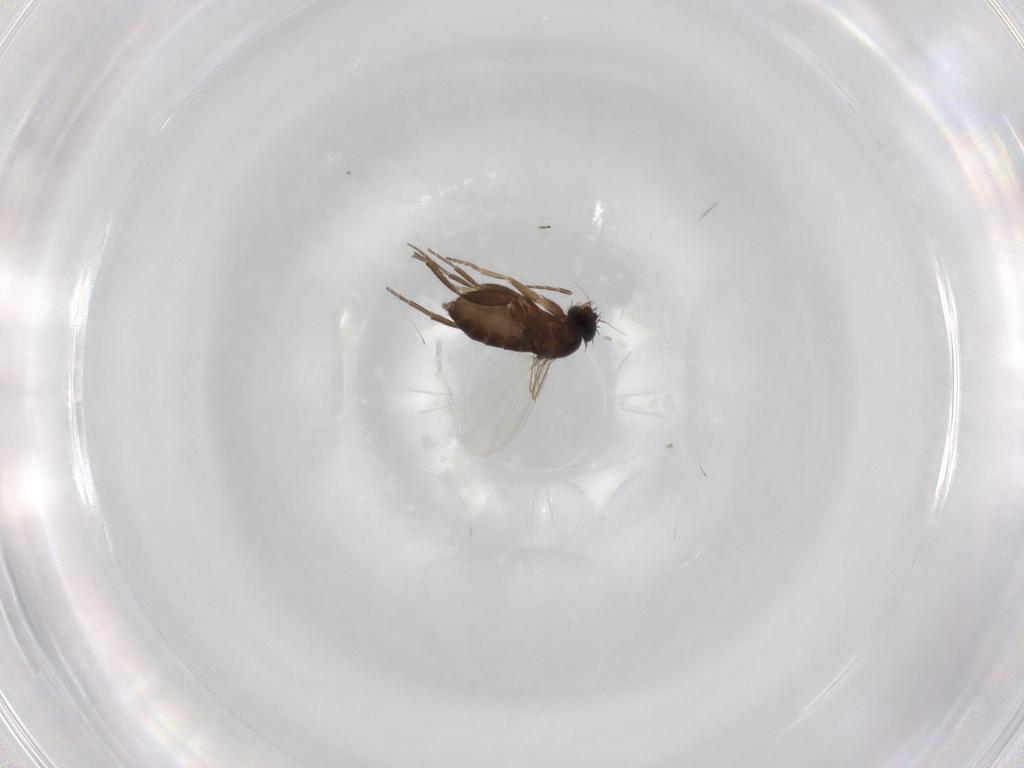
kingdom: Animalia
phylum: Arthropoda
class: Insecta
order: Diptera
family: Phoridae
